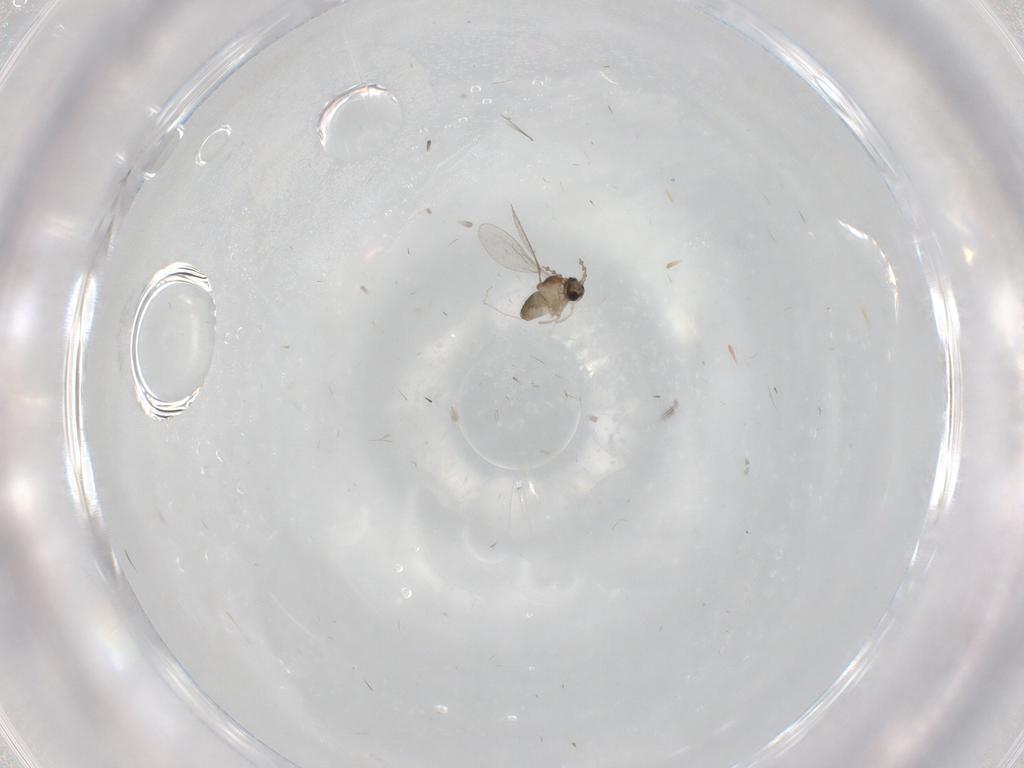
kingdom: Animalia
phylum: Arthropoda
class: Insecta
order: Diptera
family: Cecidomyiidae
